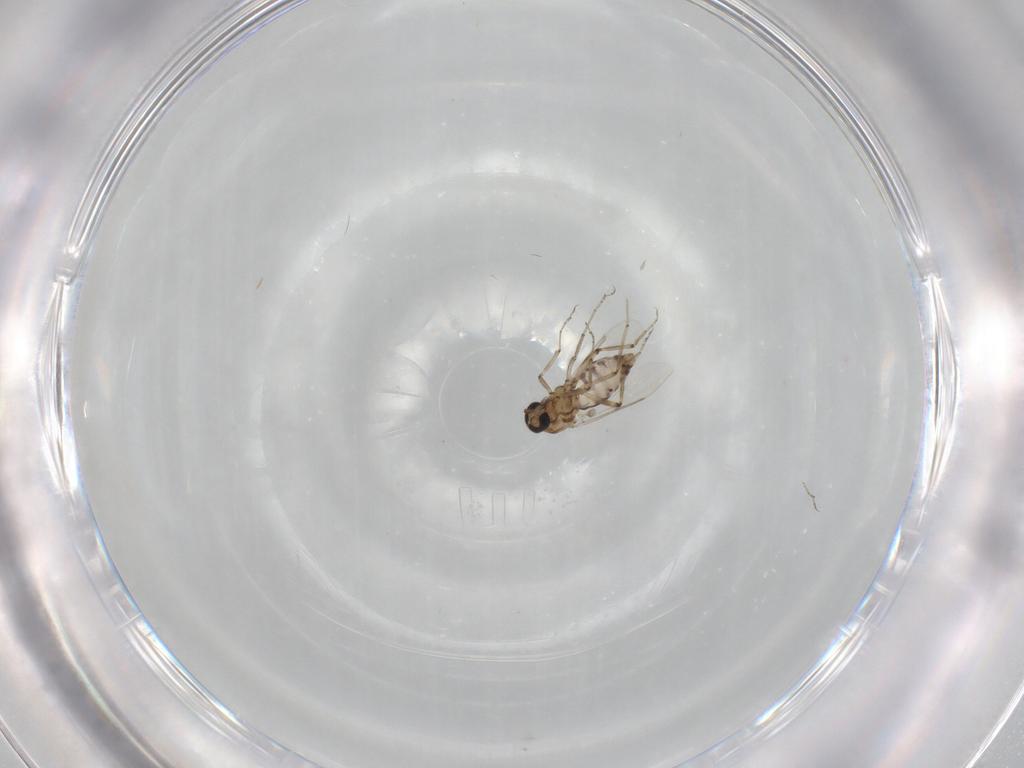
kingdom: Animalia
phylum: Arthropoda
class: Insecta
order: Diptera
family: Ceratopogonidae
